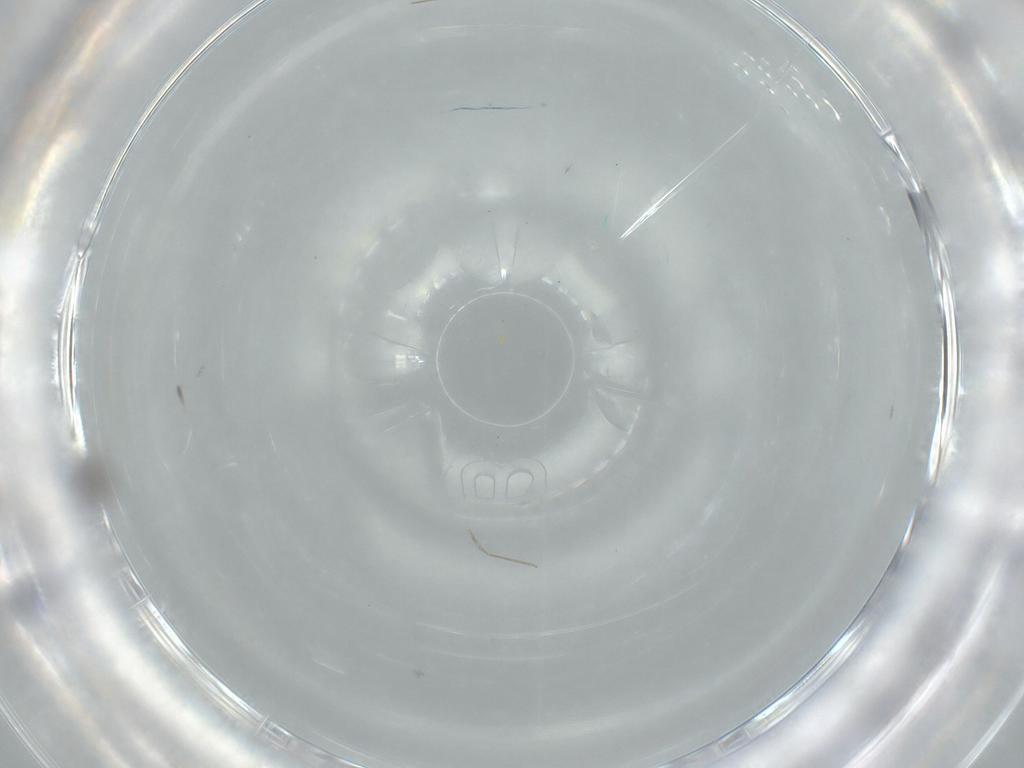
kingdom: Animalia
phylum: Arthropoda
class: Insecta
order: Diptera
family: Cecidomyiidae
